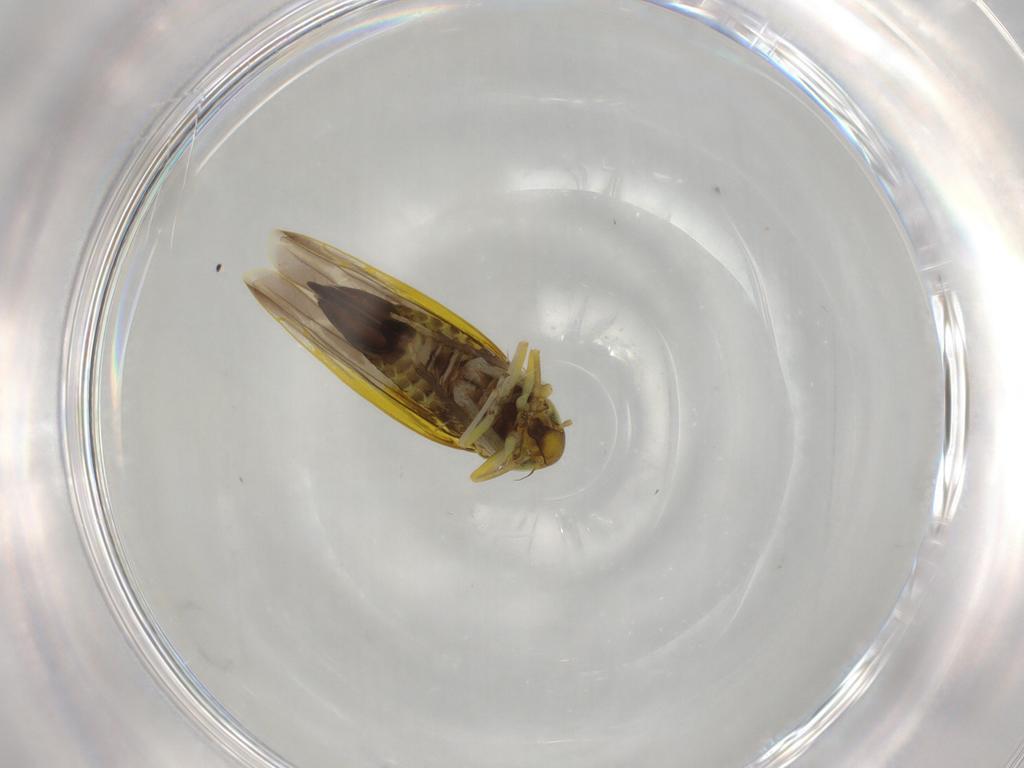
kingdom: Animalia
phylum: Arthropoda
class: Insecta
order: Hemiptera
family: Cicadellidae
